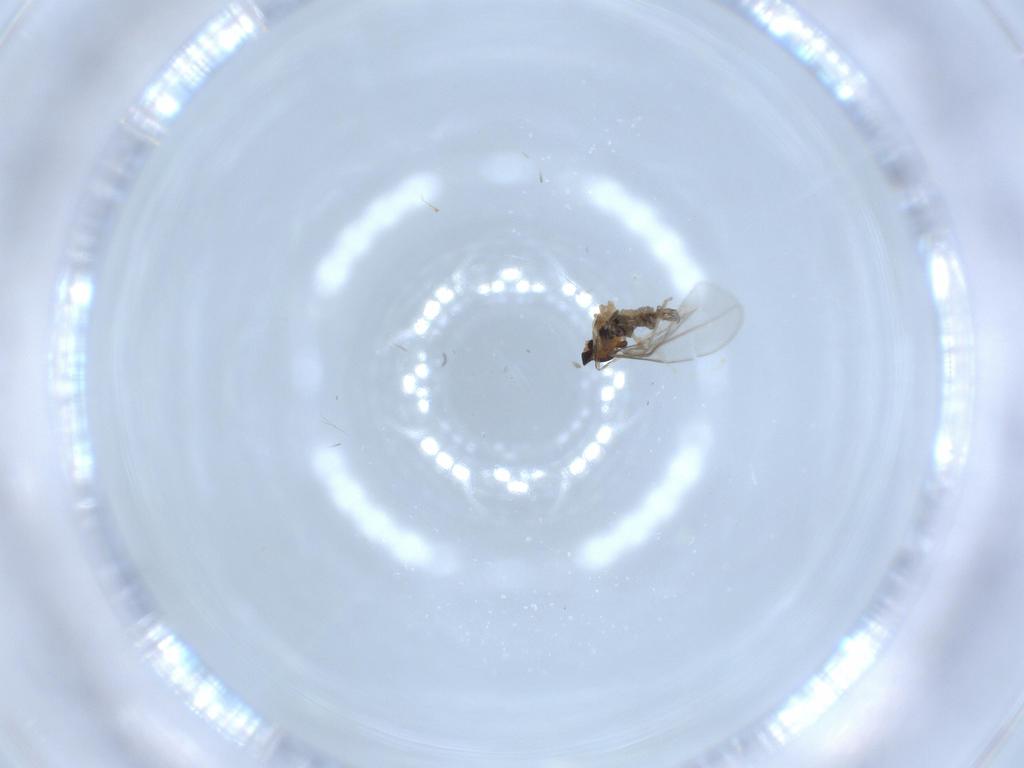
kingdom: Animalia
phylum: Arthropoda
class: Insecta
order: Diptera
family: Cecidomyiidae
